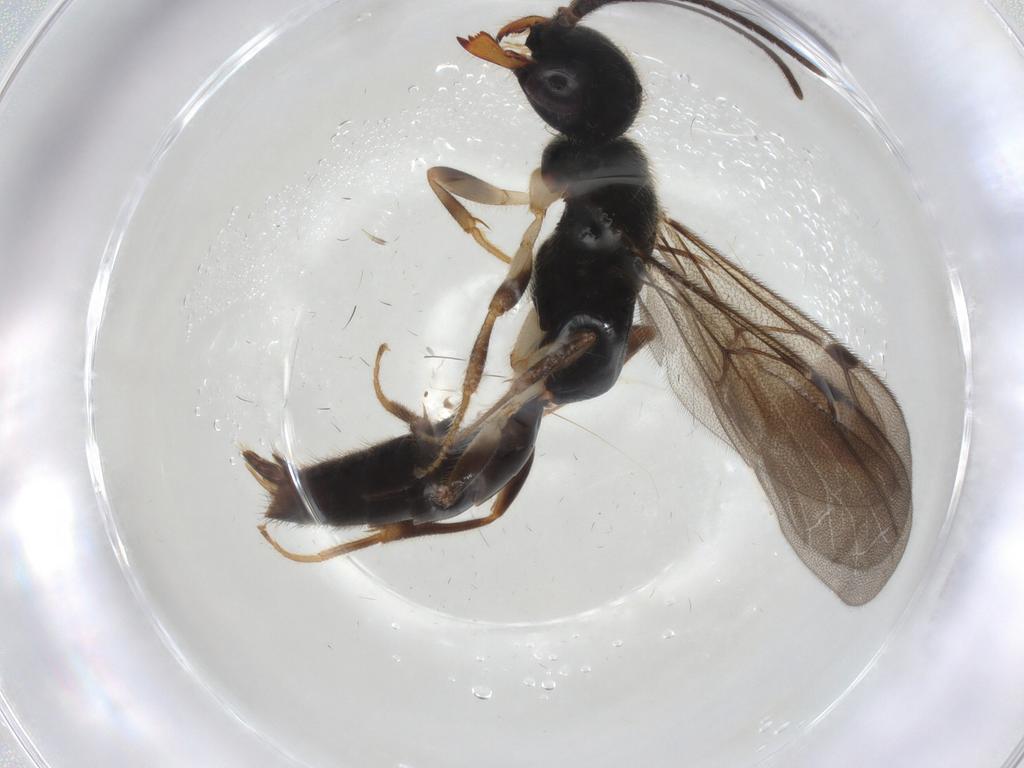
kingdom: Animalia
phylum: Arthropoda
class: Insecta
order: Hymenoptera
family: Bethylidae
